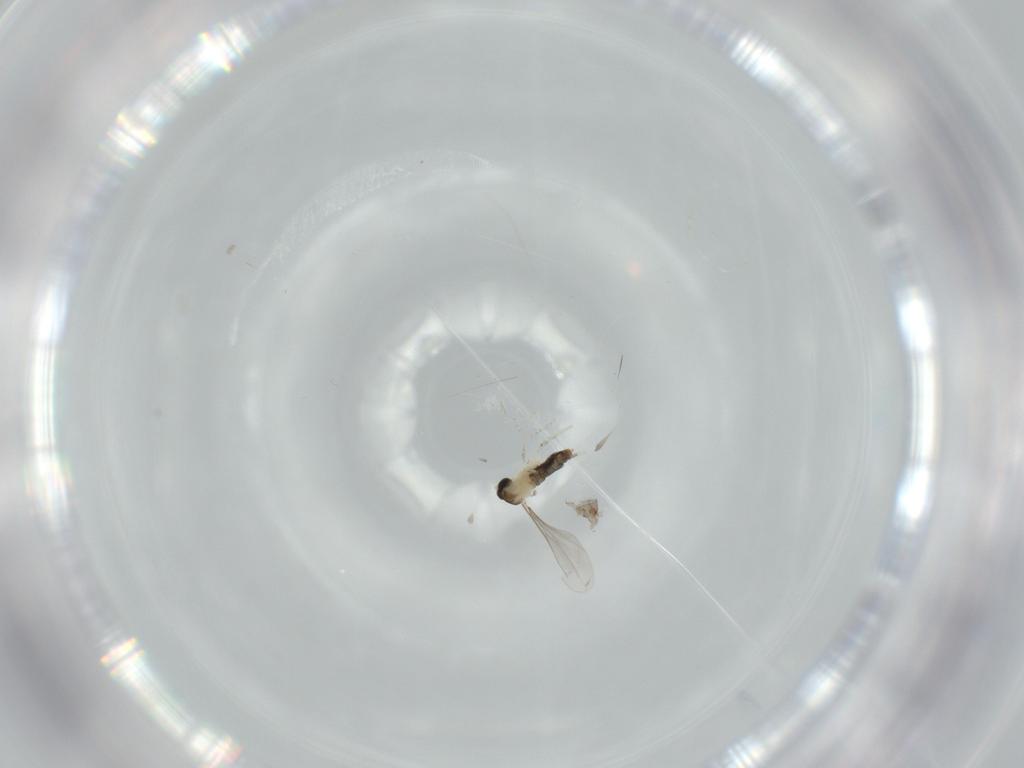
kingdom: Animalia
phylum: Arthropoda
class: Insecta
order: Diptera
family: Cecidomyiidae
